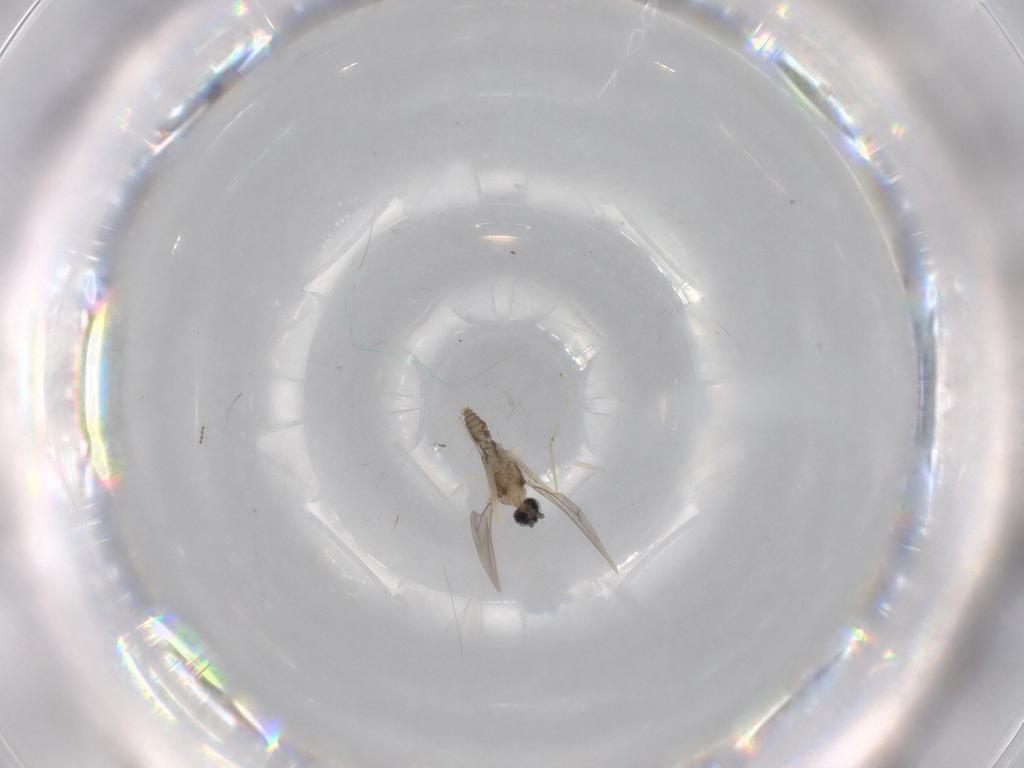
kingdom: Animalia
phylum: Arthropoda
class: Insecta
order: Diptera
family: Cecidomyiidae
